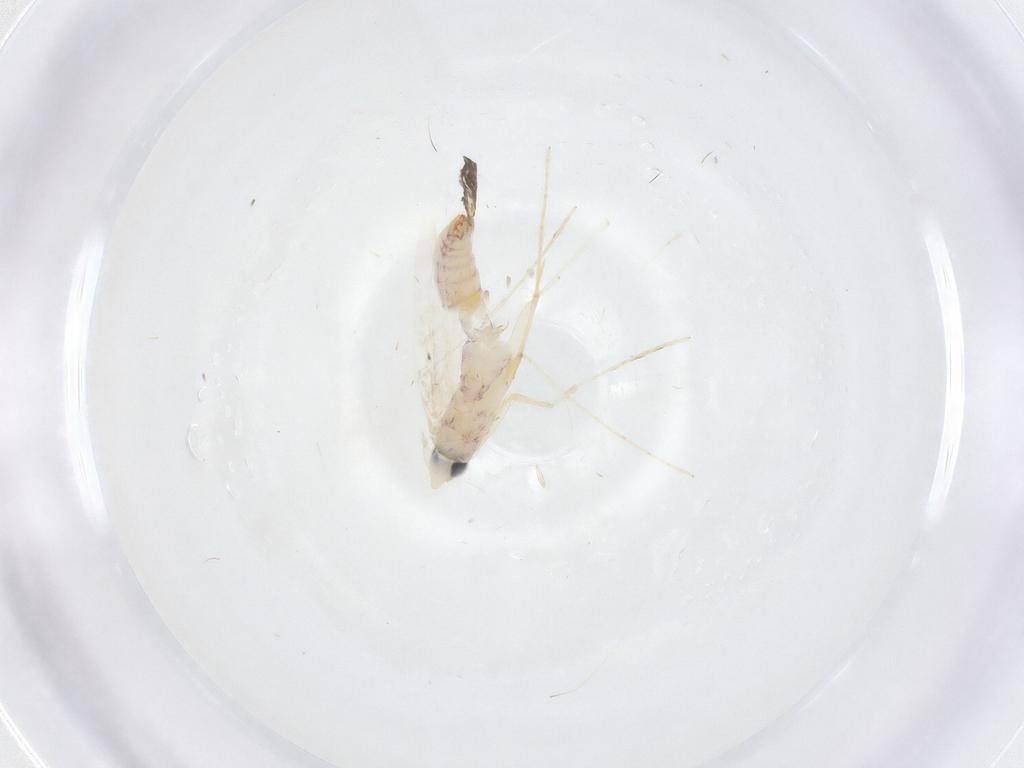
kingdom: Animalia
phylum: Arthropoda
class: Insecta
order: Lepidoptera
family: Saturniidae
